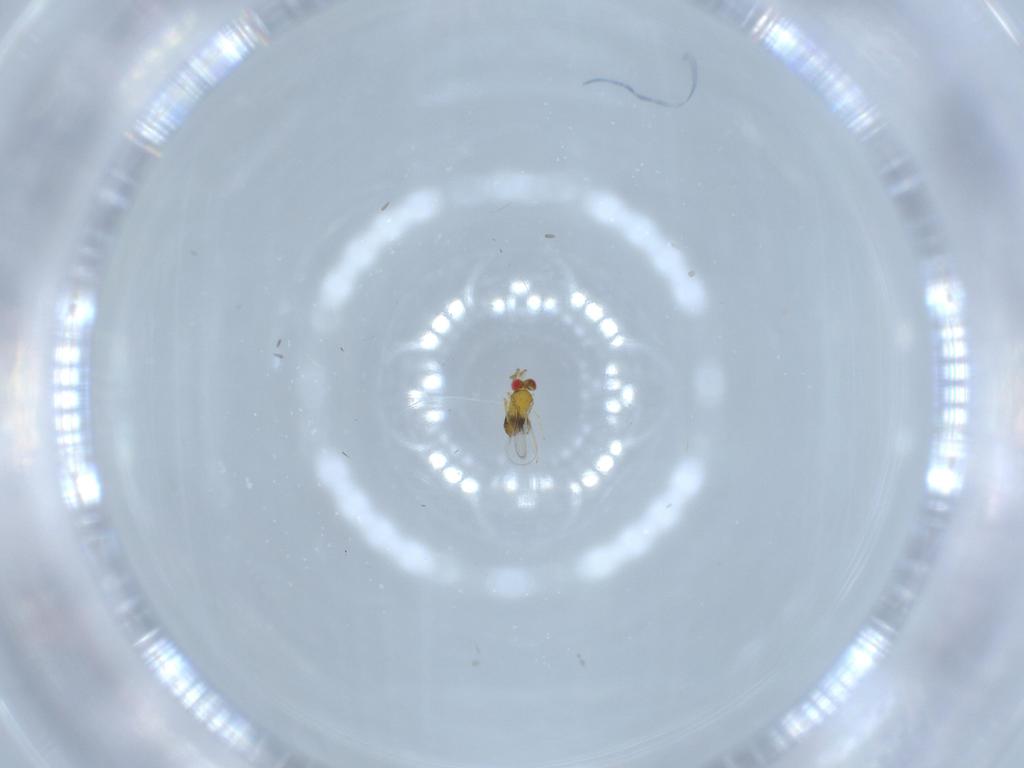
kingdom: Animalia
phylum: Arthropoda
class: Insecta
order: Hymenoptera
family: Trichogrammatidae
